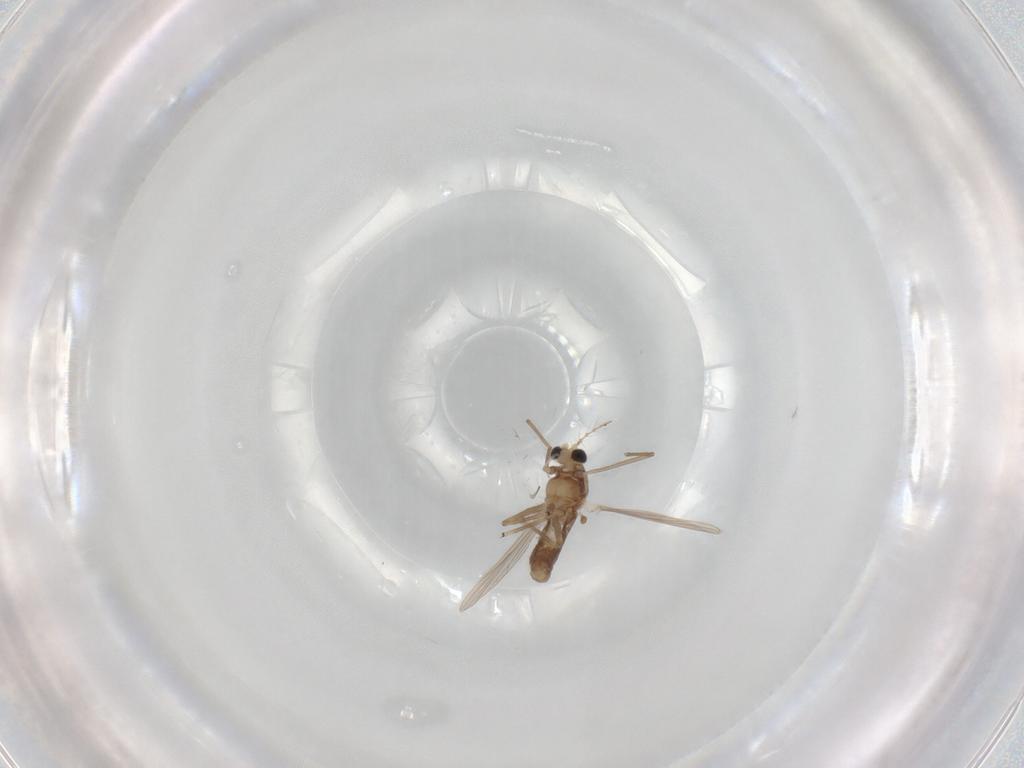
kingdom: Animalia
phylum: Arthropoda
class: Insecta
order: Diptera
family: Chironomidae
